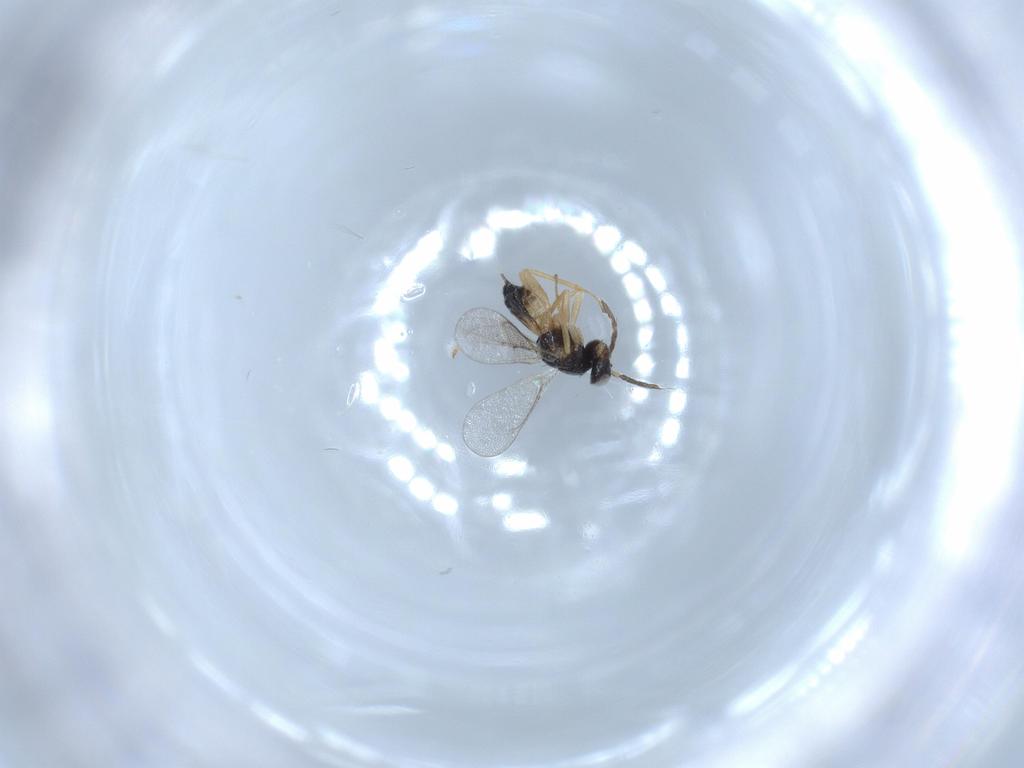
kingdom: Animalia
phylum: Arthropoda
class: Insecta
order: Hymenoptera
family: Eulophidae
